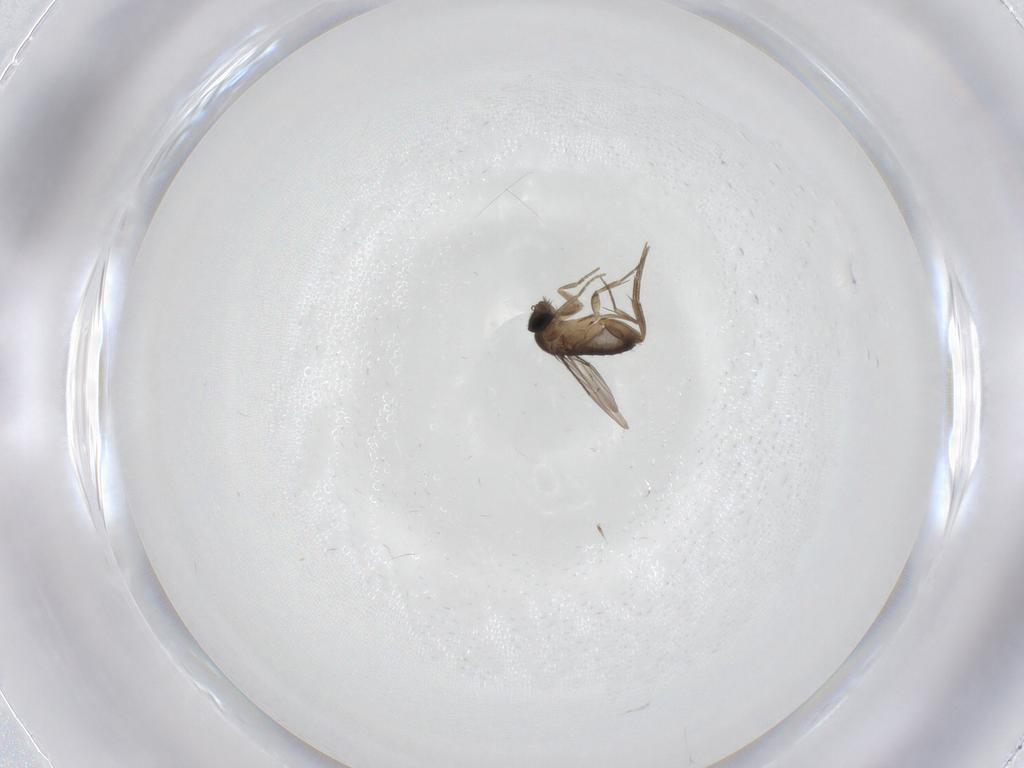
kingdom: Animalia
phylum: Arthropoda
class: Insecta
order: Diptera
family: Phoridae
